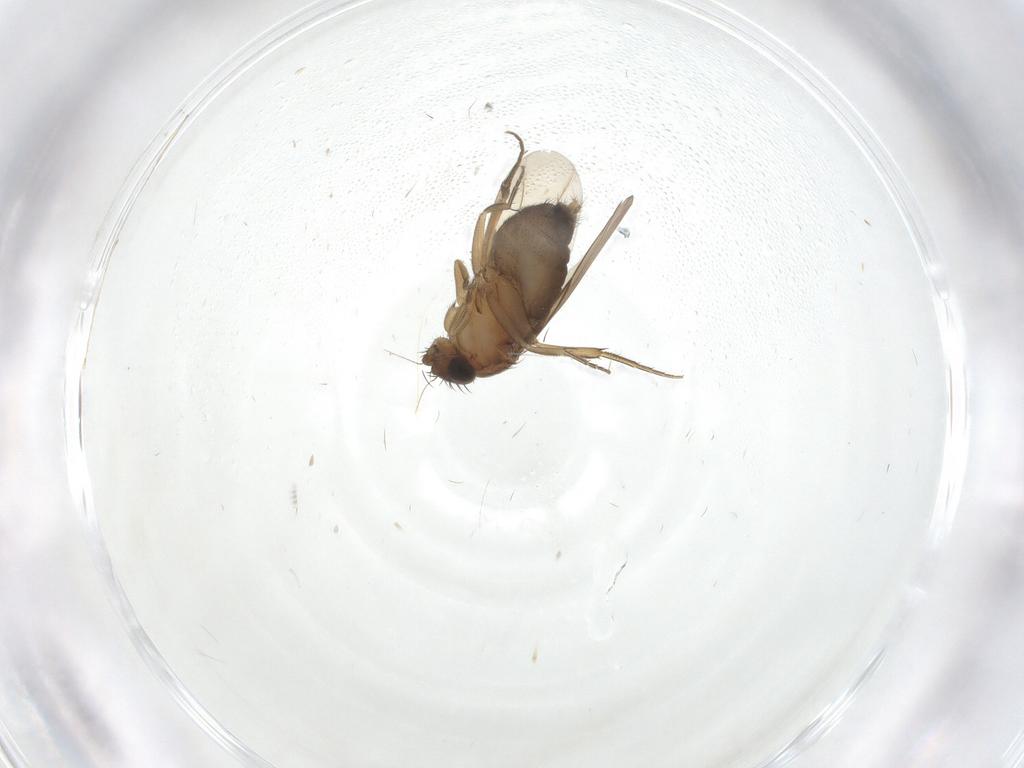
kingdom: Animalia
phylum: Arthropoda
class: Insecta
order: Diptera
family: Phoridae
